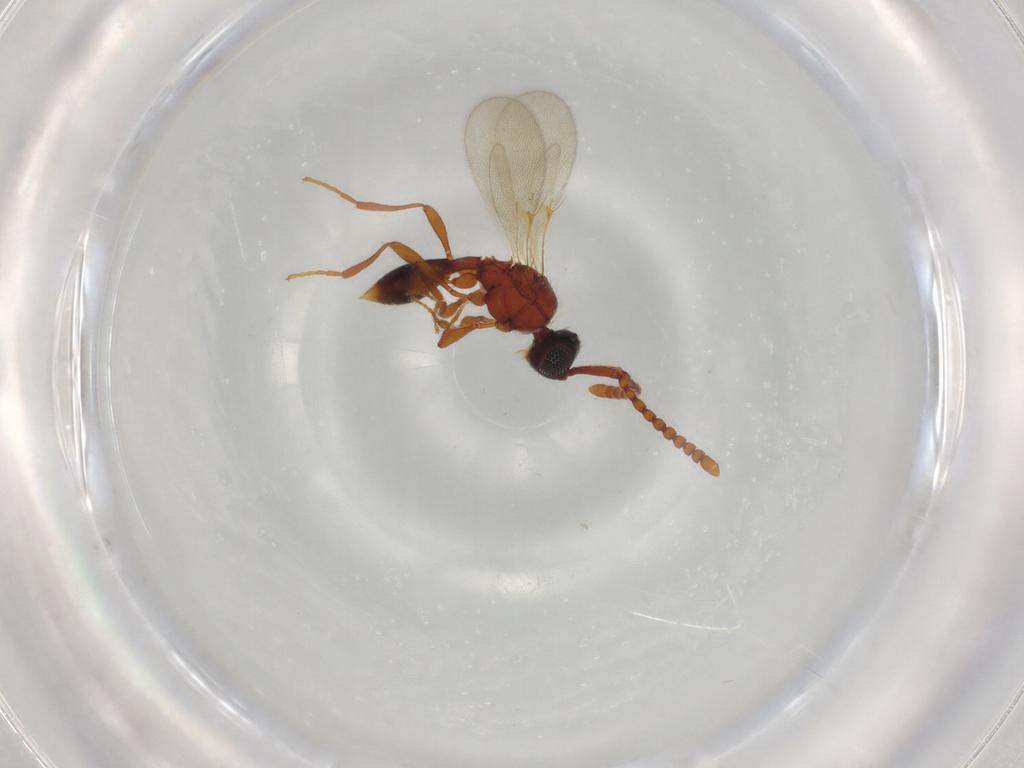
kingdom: Animalia
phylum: Arthropoda
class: Insecta
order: Hymenoptera
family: Diapriidae
